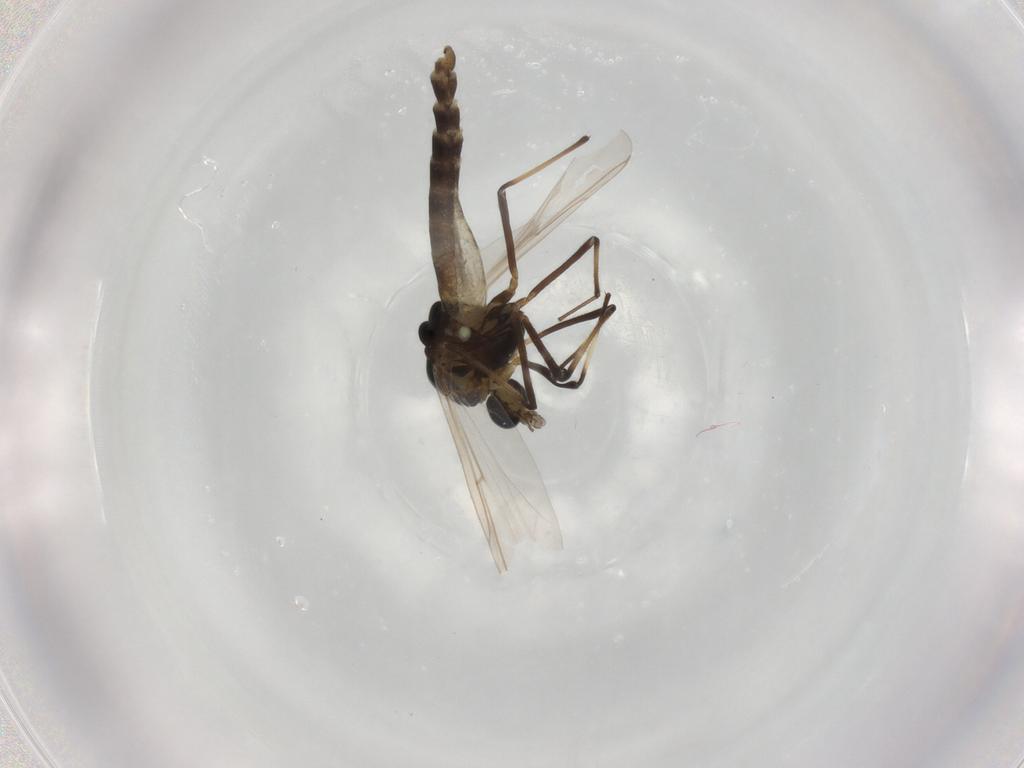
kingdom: Animalia
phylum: Arthropoda
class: Insecta
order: Diptera
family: Chironomidae
